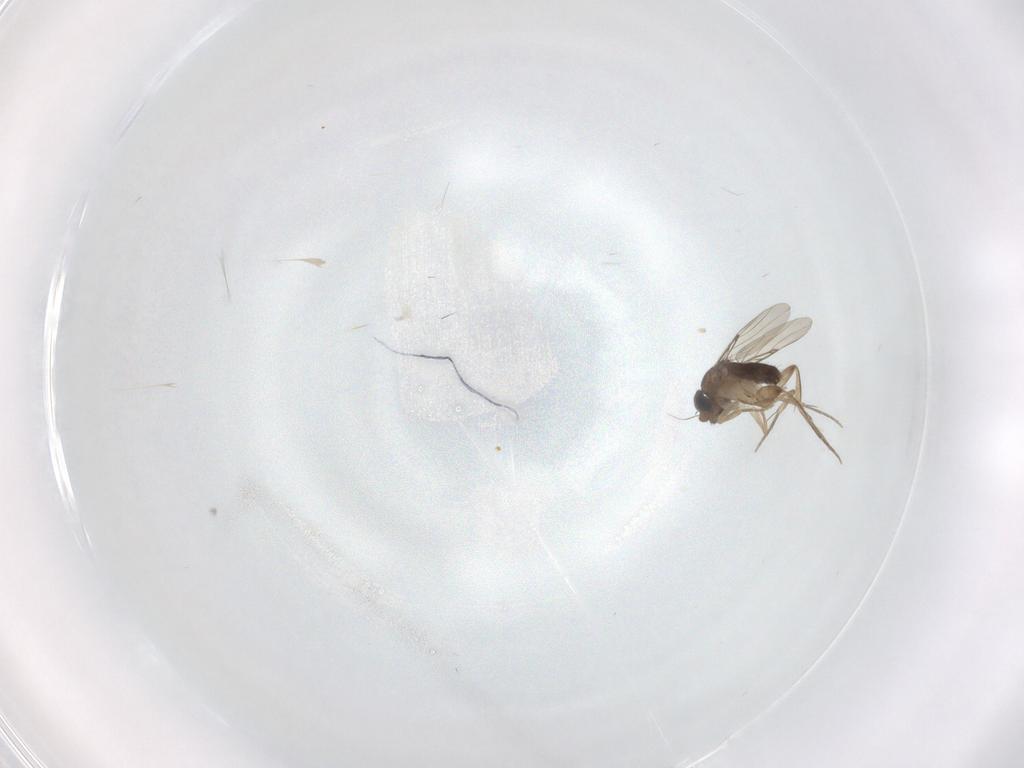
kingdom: Animalia
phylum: Arthropoda
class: Insecta
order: Diptera
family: Phoridae
